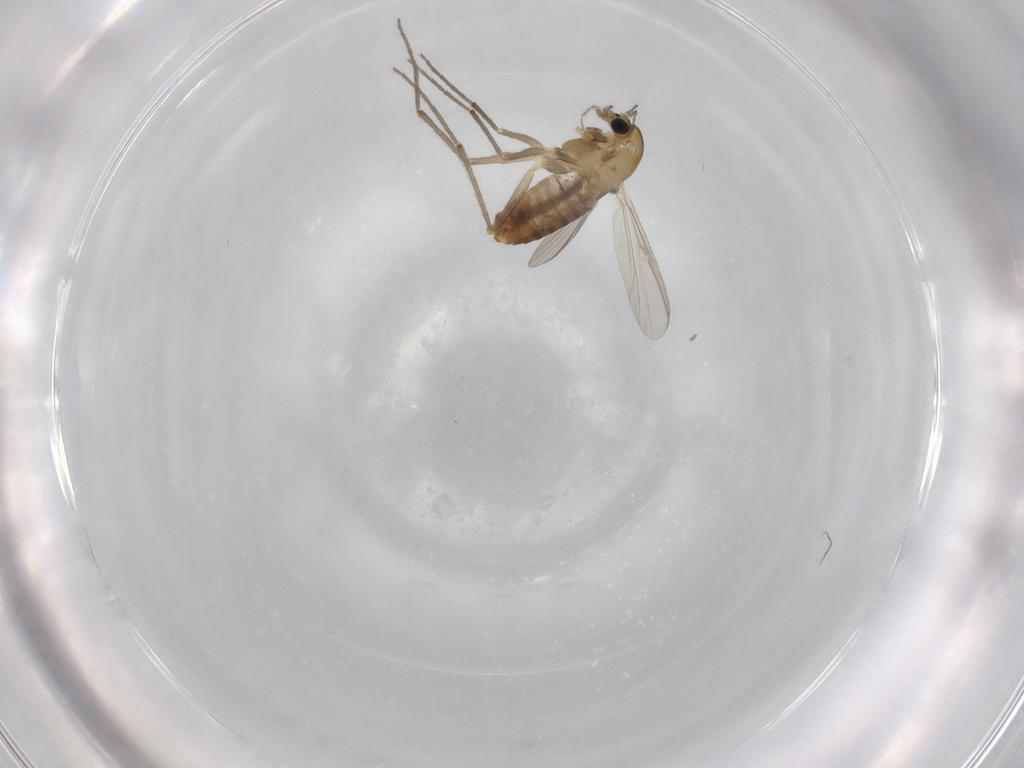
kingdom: Animalia
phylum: Arthropoda
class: Insecta
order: Diptera
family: Chironomidae
